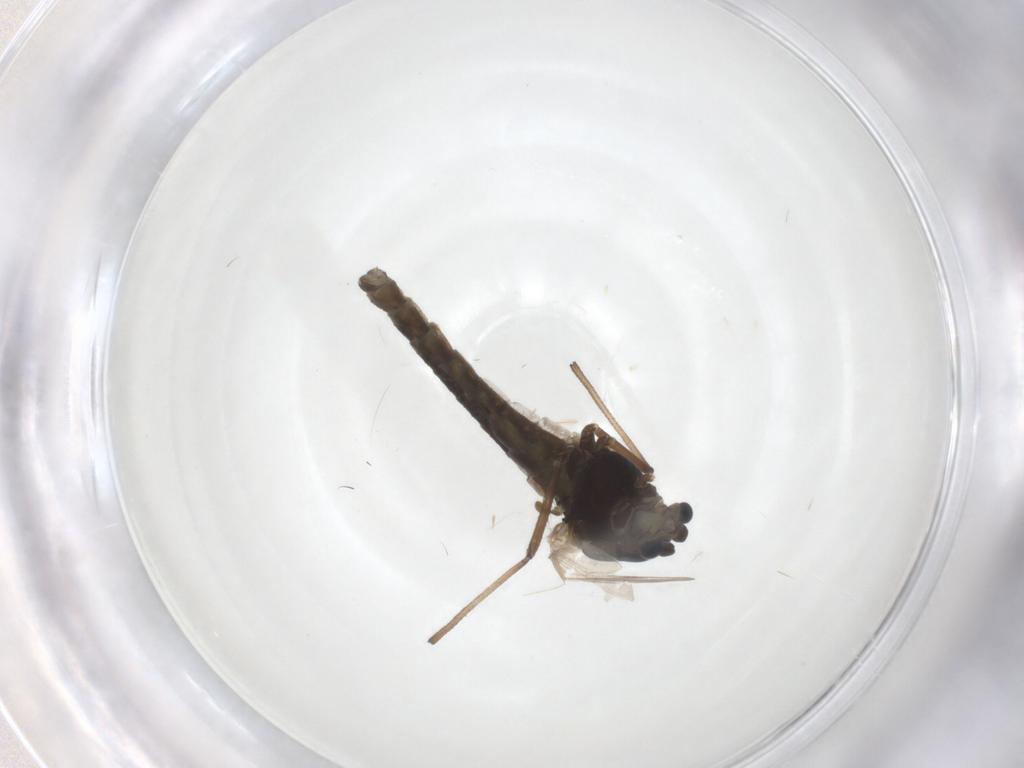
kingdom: Animalia
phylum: Arthropoda
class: Insecta
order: Diptera
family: Chironomidae
